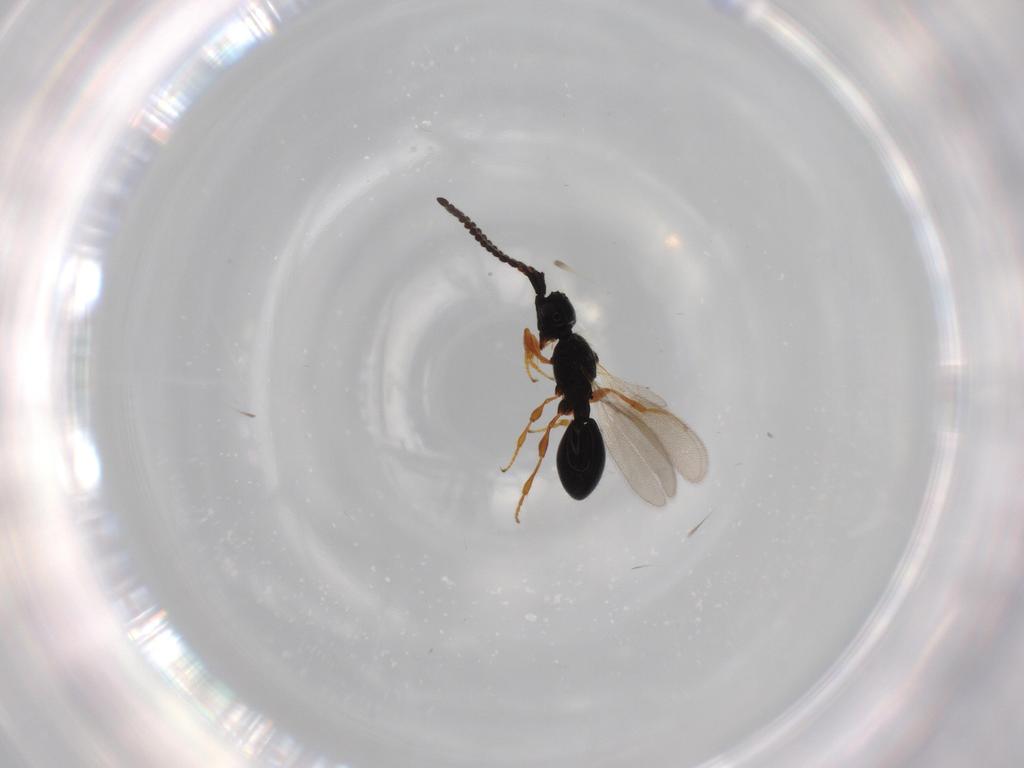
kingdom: Animalia
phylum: Arthropoda
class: Insecta
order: Hymenoptera
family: Diapriidae
